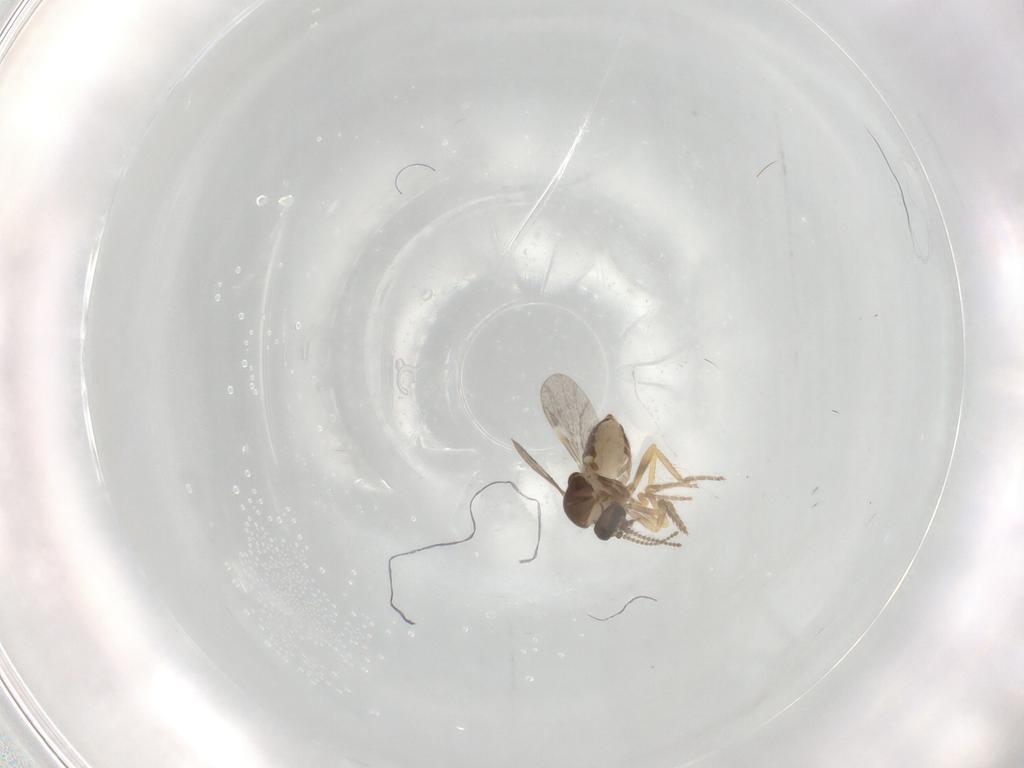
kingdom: Animalia
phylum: Arthropoda
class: Insecta
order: Diptera
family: Ceratopogonidae
